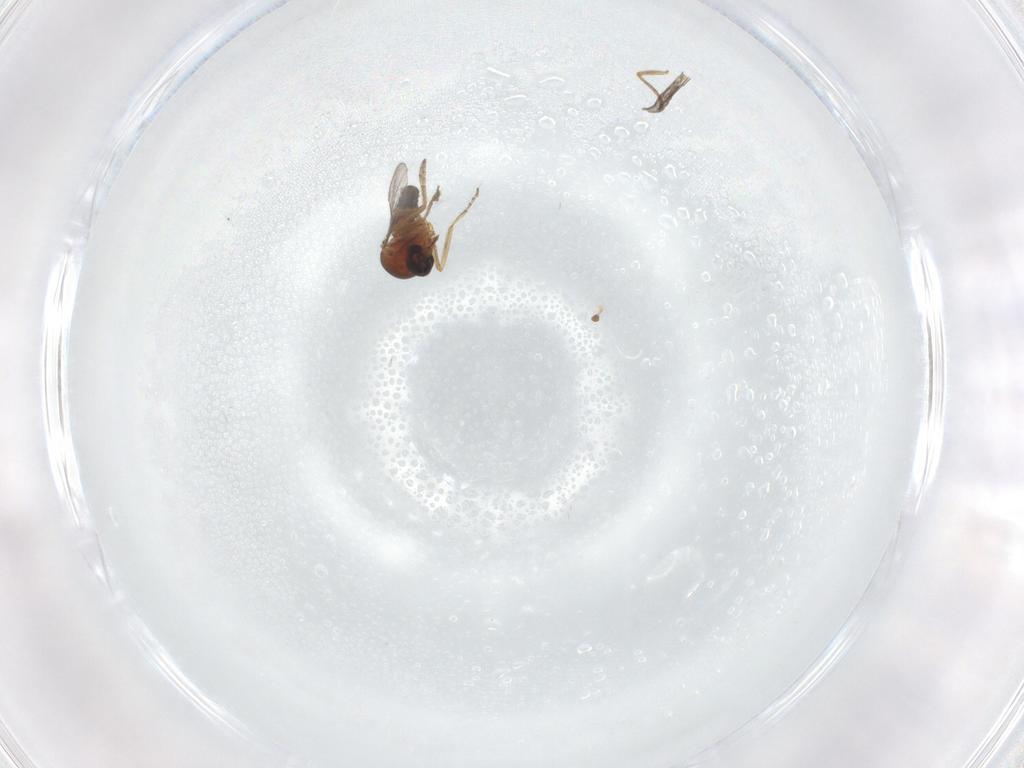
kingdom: Animalia
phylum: Arthropoda
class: Insecta
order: Diptera
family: Ceratopogonidae
